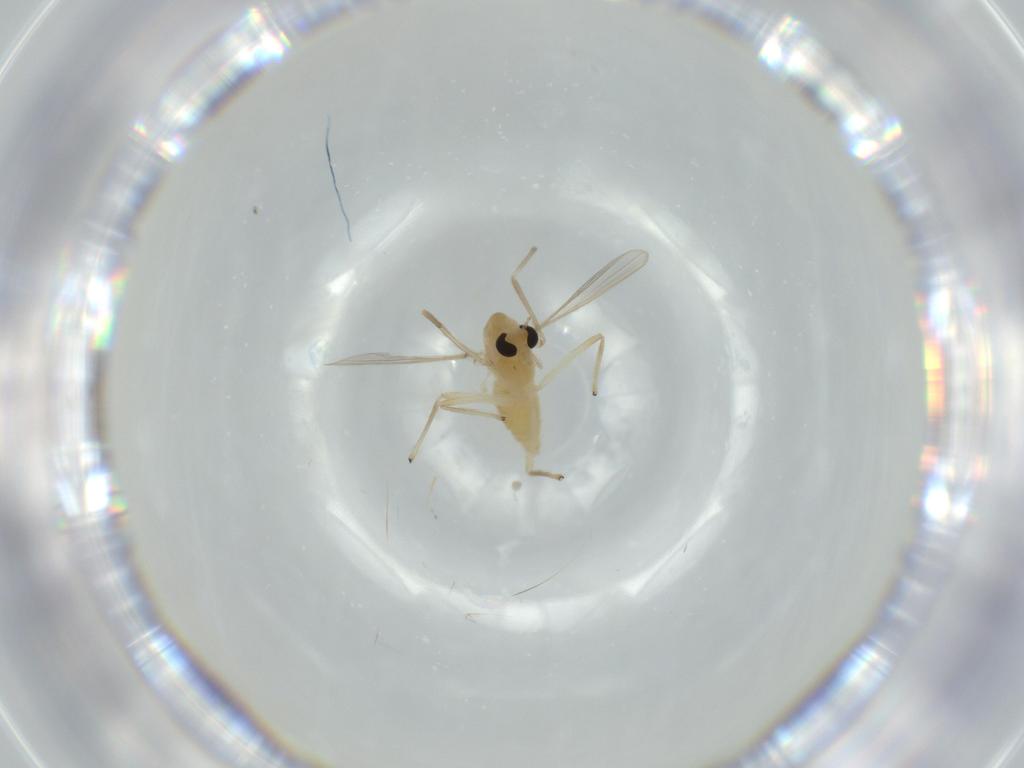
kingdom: Animalia
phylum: Arthropoda
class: Insecta
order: Diptera
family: Chironomidae
